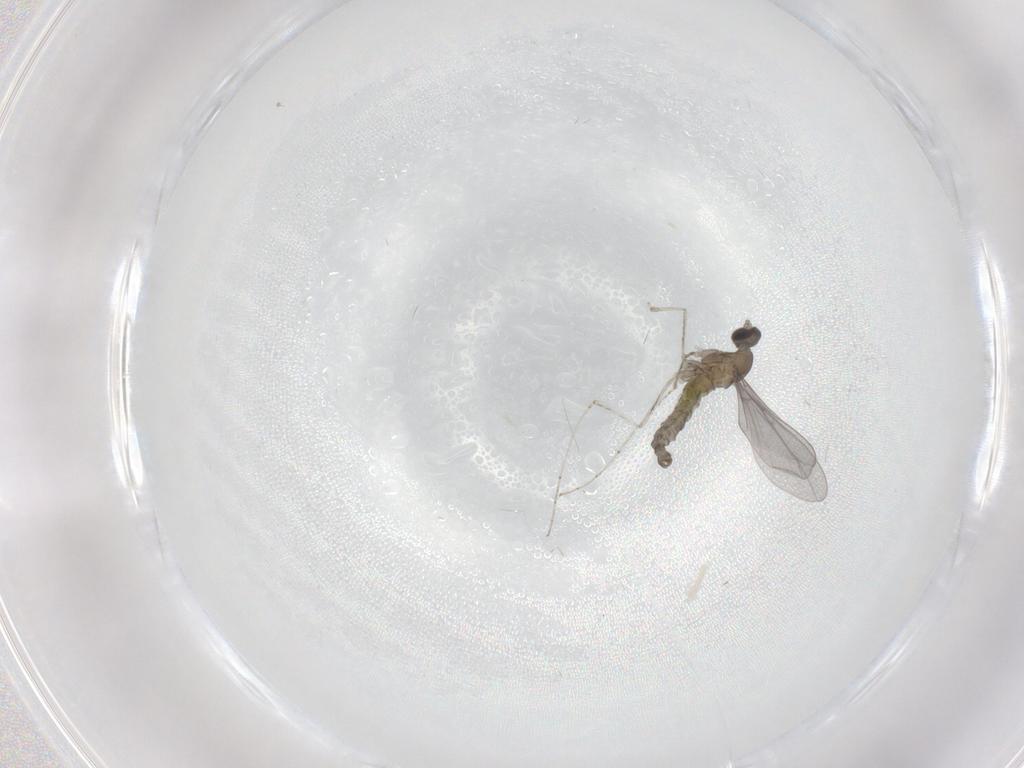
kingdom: Animalia
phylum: Arthropoda
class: Insecta
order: Diptera
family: Cecidomyiidae
